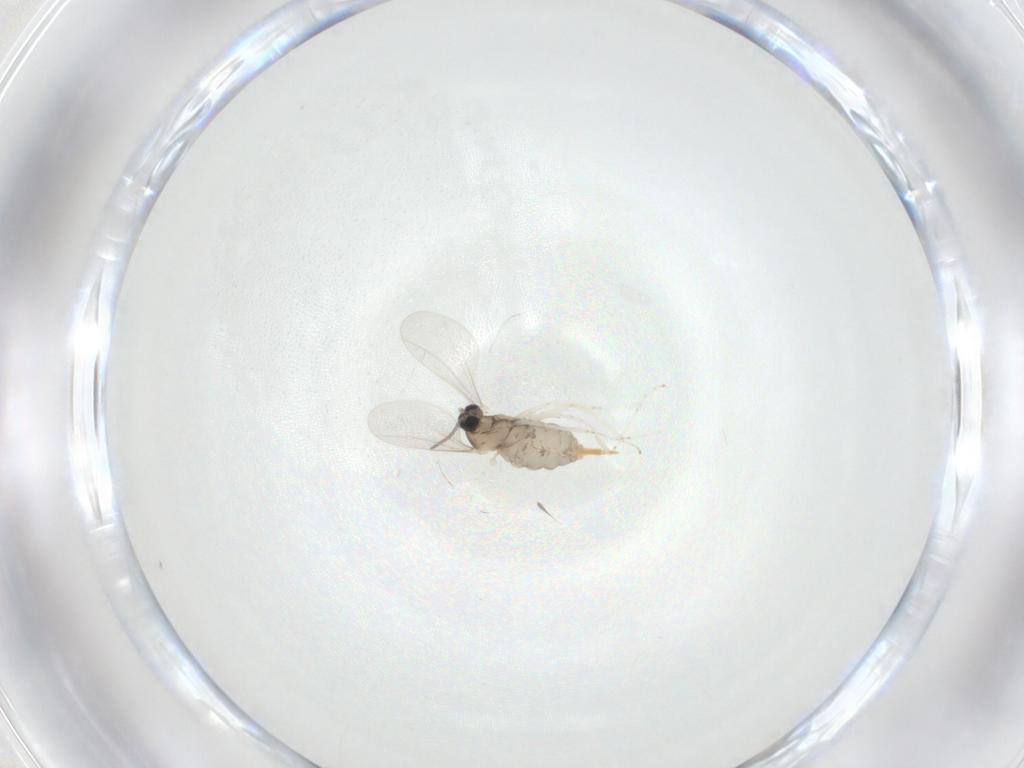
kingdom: Animalia
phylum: Arthropoda
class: Insecta
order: Diptera
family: Cecidomyiidae
